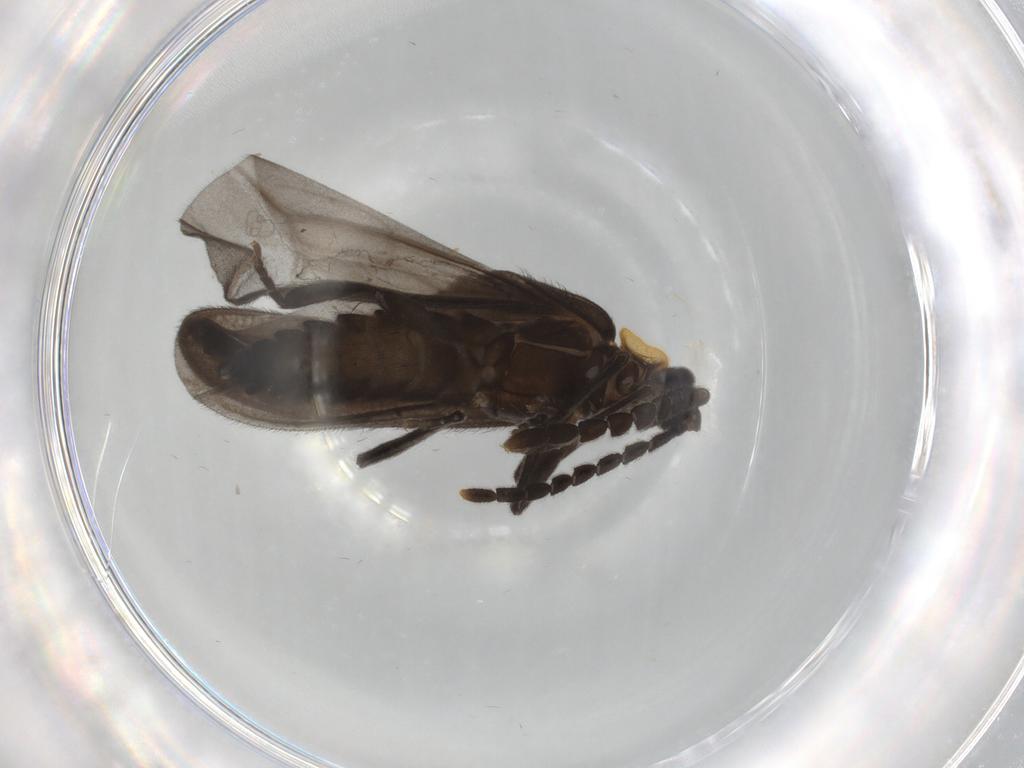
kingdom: Animalia
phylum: Arthropoda
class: Insecta
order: Coleoptera
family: Lycidae
